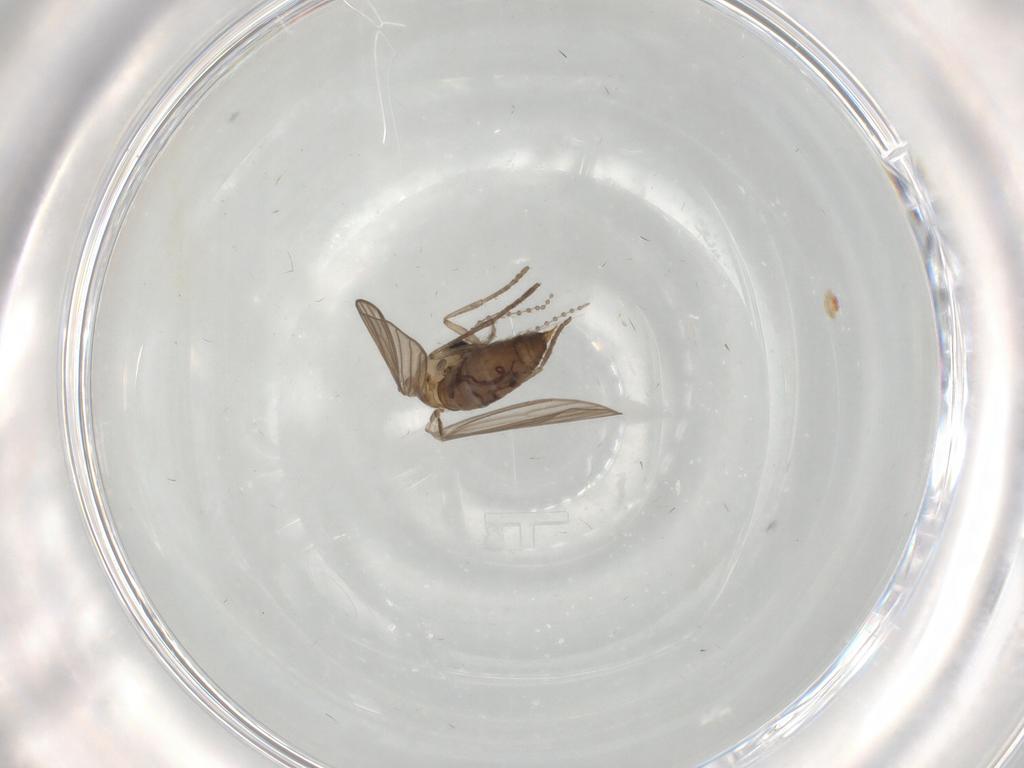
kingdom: Animalia
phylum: Arthropoda
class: Insecta
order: Diptera
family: Psychodidae
